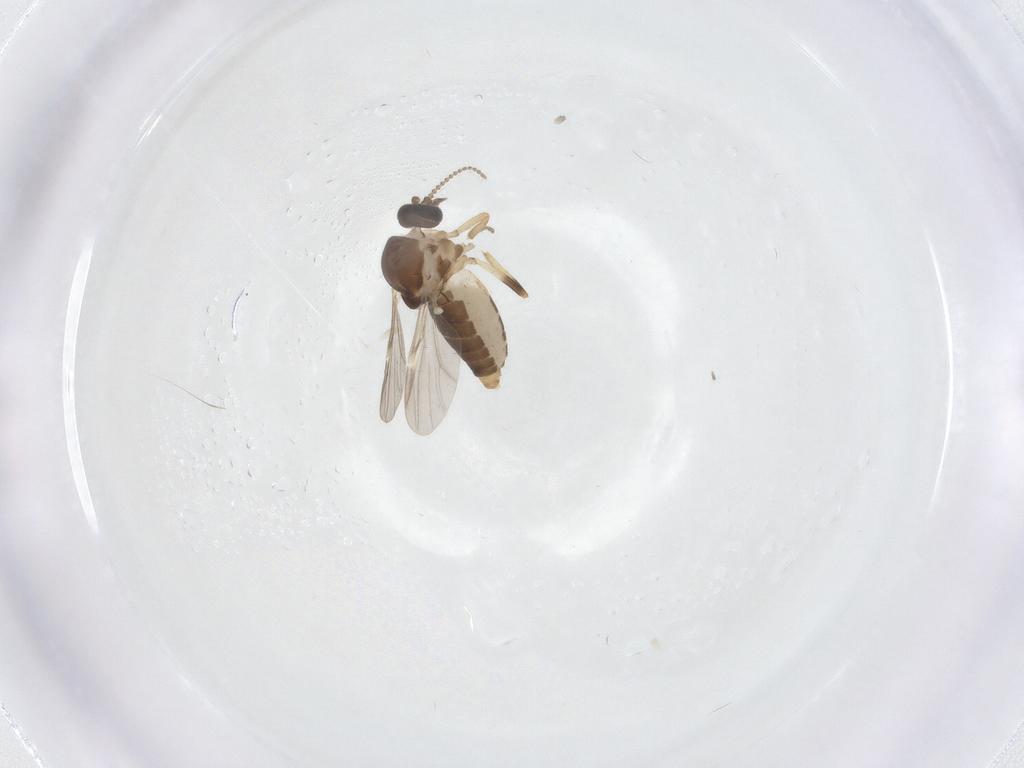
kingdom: Animalia
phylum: Arthropoda
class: Insecta
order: Diptera
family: Ceratopogonidae
